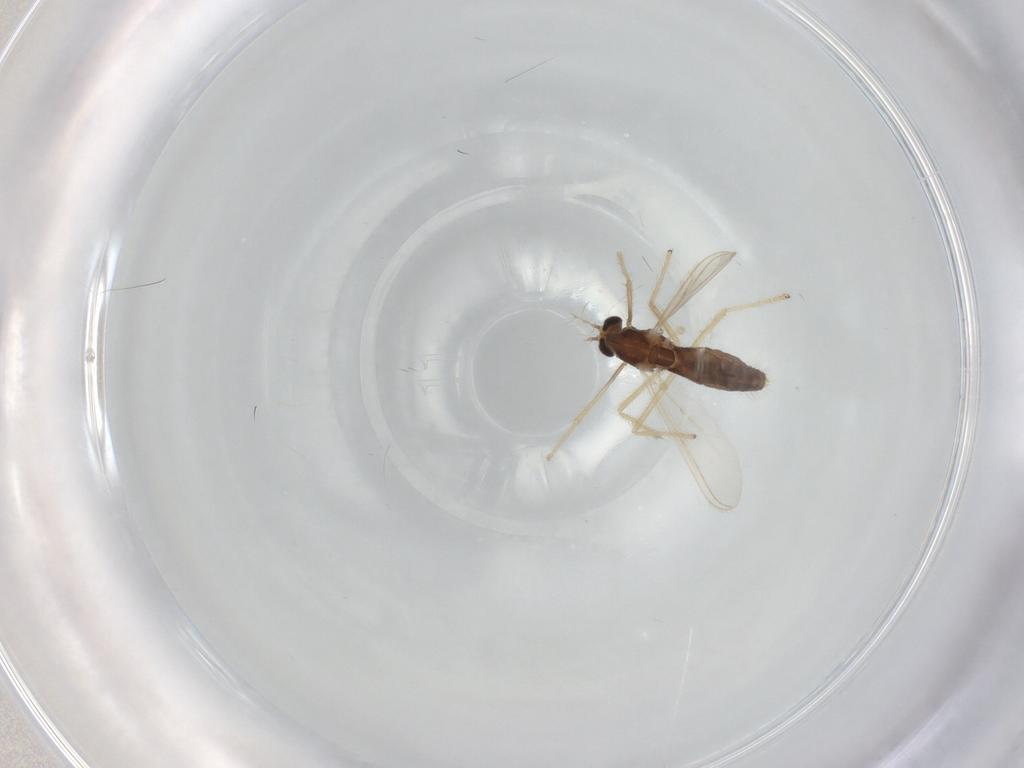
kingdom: Animalia
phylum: Arthropoda
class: Insecta
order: Diptera
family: Chironomidae
